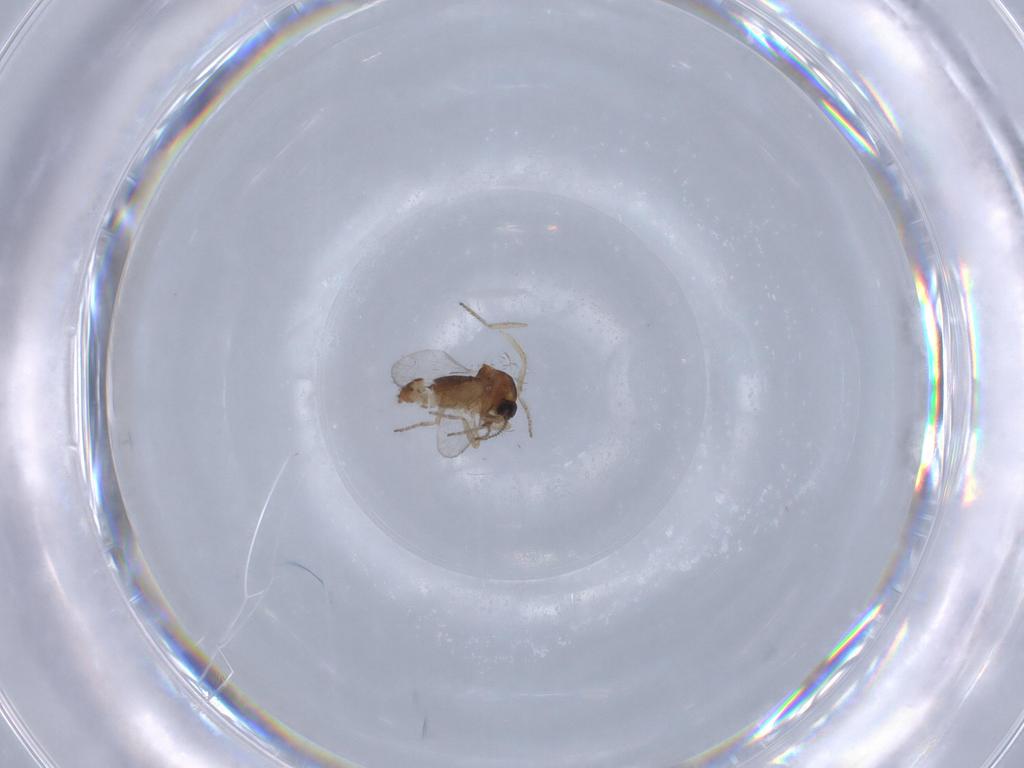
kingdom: Animalia
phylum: Arthropoda
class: Insecta
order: Diptera
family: Ceratopogonidae
